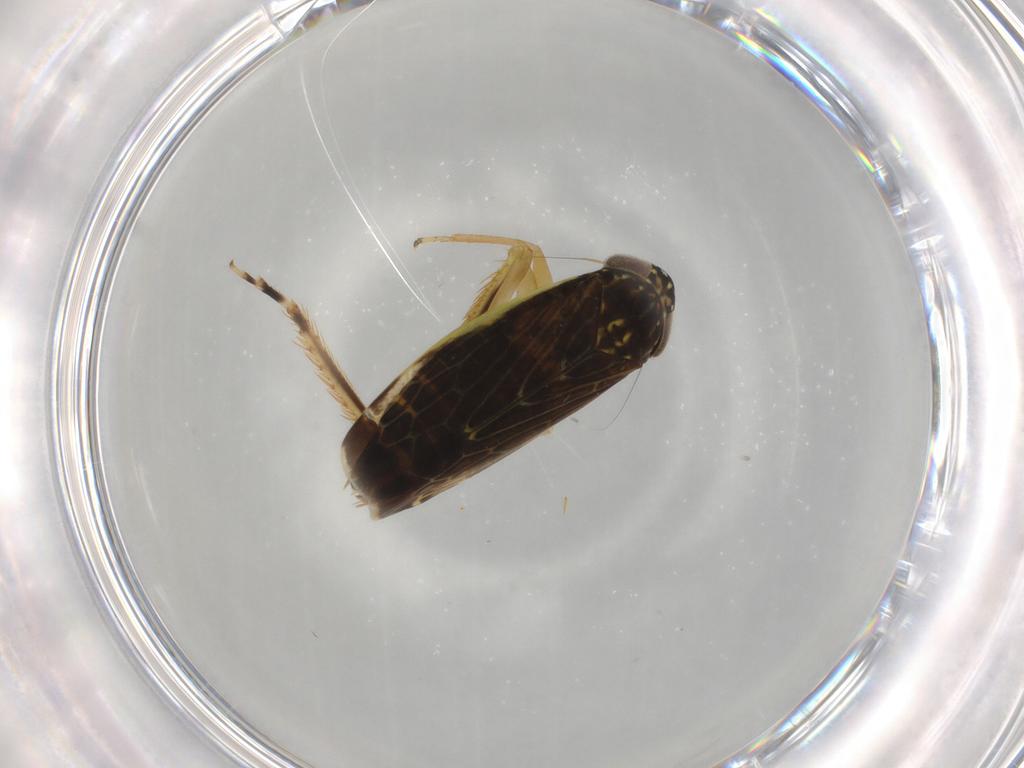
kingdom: Animalia
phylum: Arthropoda
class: Insecta
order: Hemiptera
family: Cicadellidae
